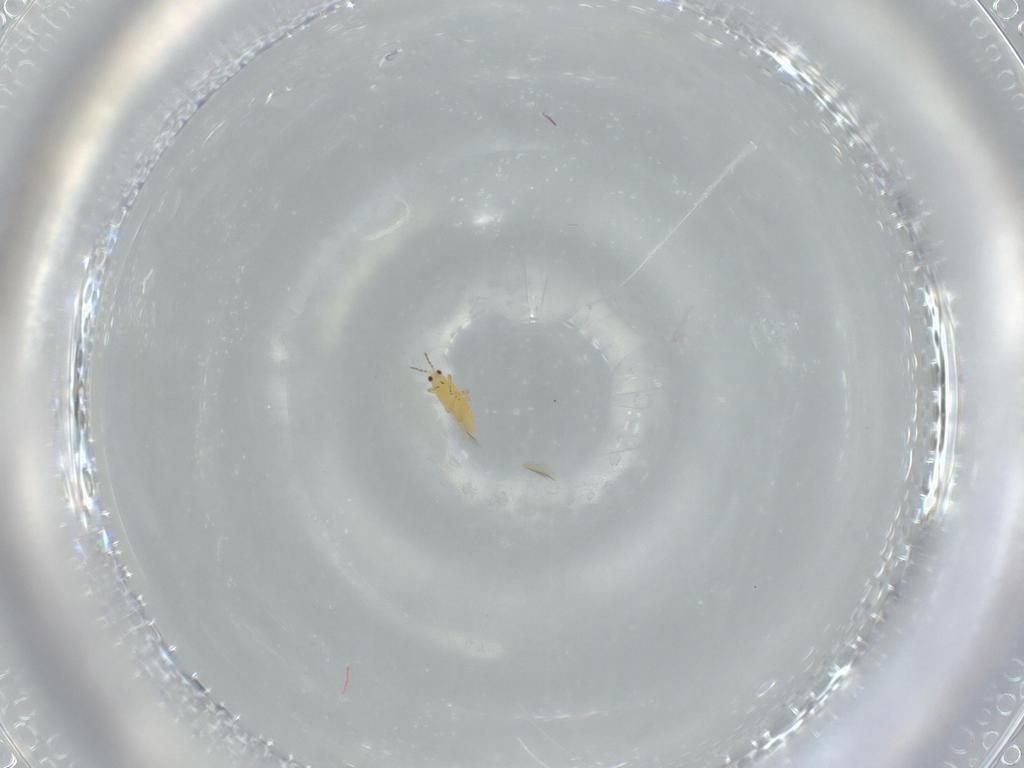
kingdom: Animalia
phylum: Arthropoda
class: Insecta
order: Thysanoptera
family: Thripidae
